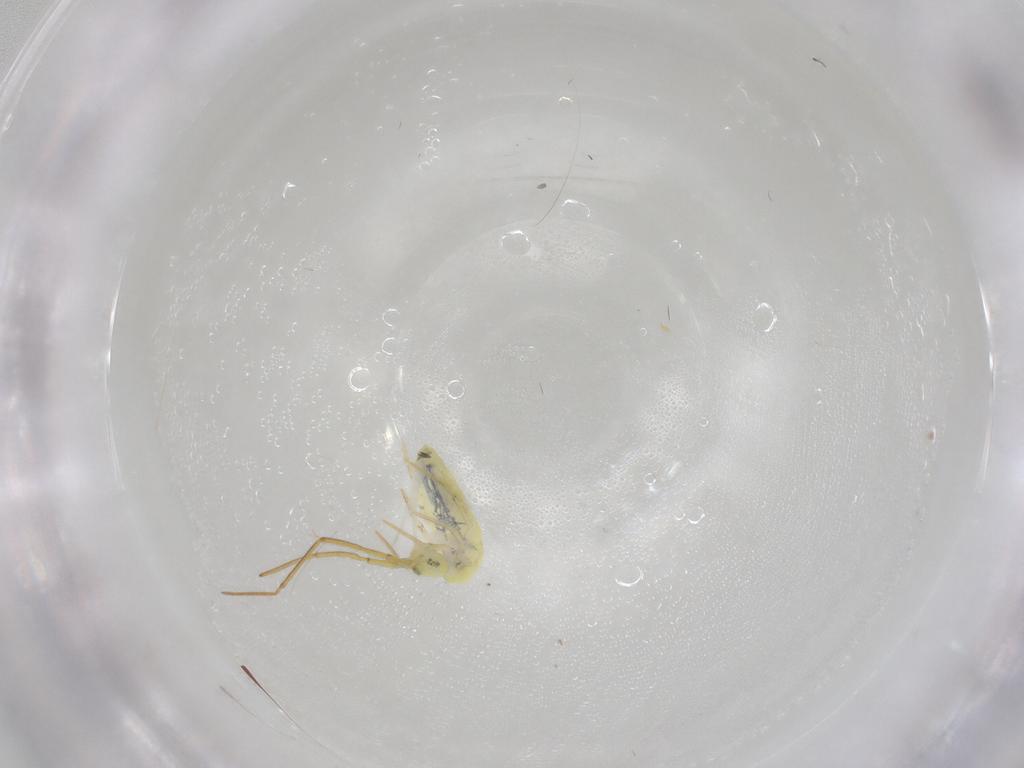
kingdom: Animalia
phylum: Arthropoda
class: Collembola
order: Entomobryomorpha
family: Entomobryidae
